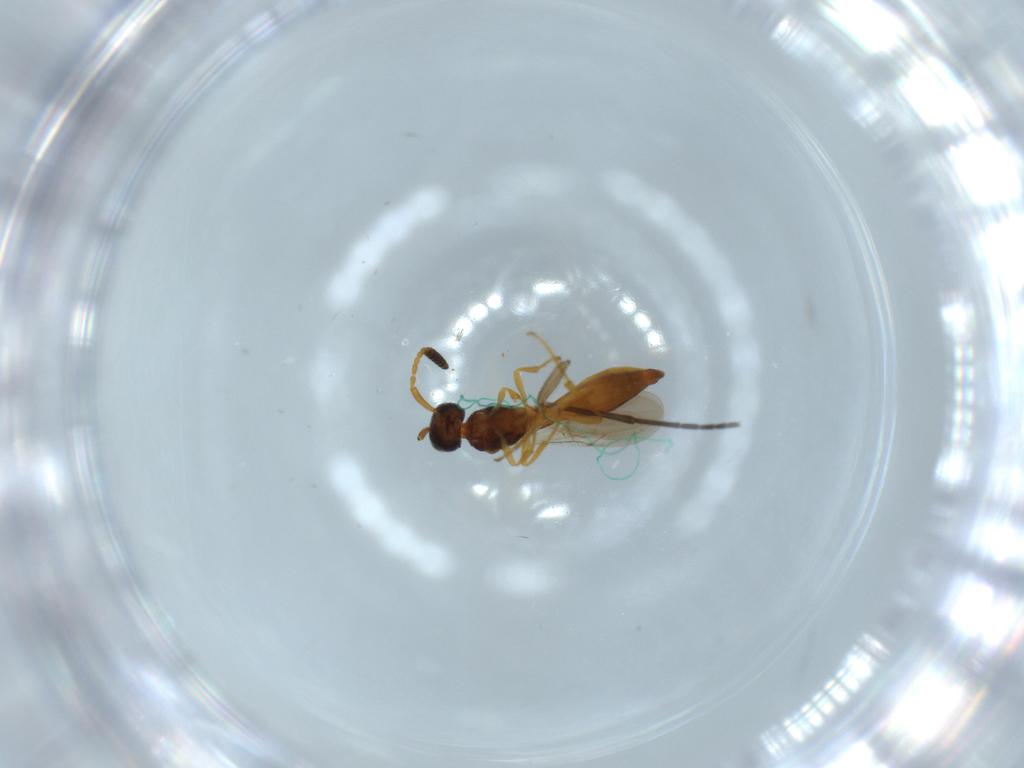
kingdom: Animalia
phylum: Arthropoda
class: Insecta
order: Hymenoptera
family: Scelionidae
